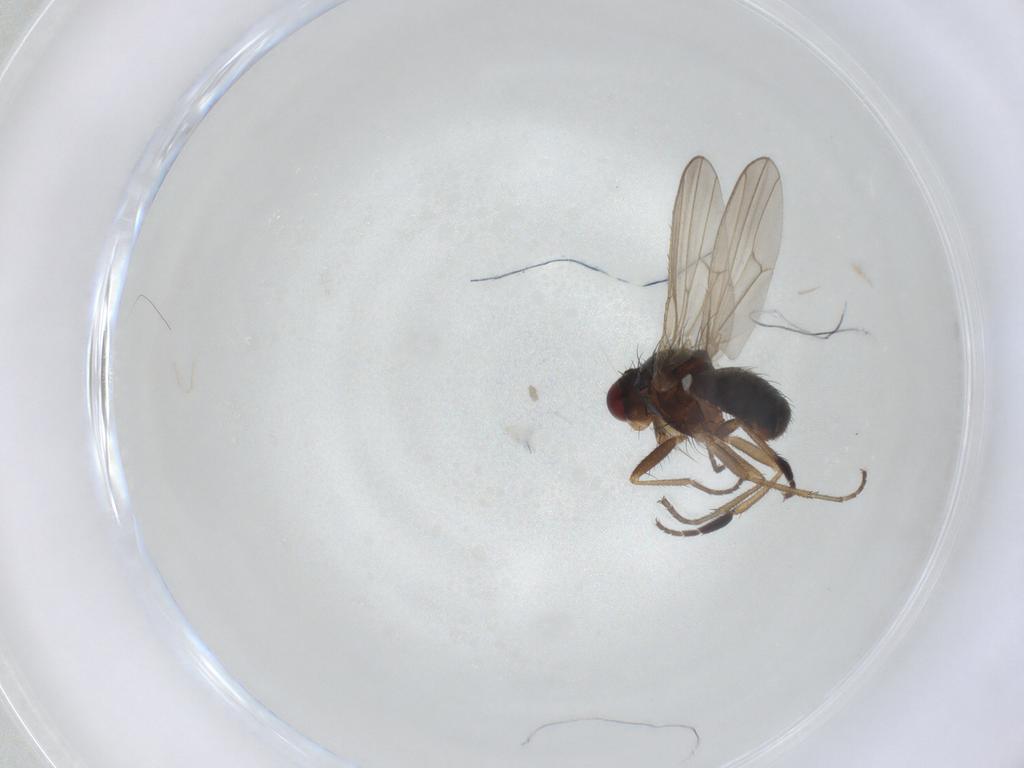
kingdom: Animalia
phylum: Arthropoda
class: Insecta
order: Diptera
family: Heleomyzidae
